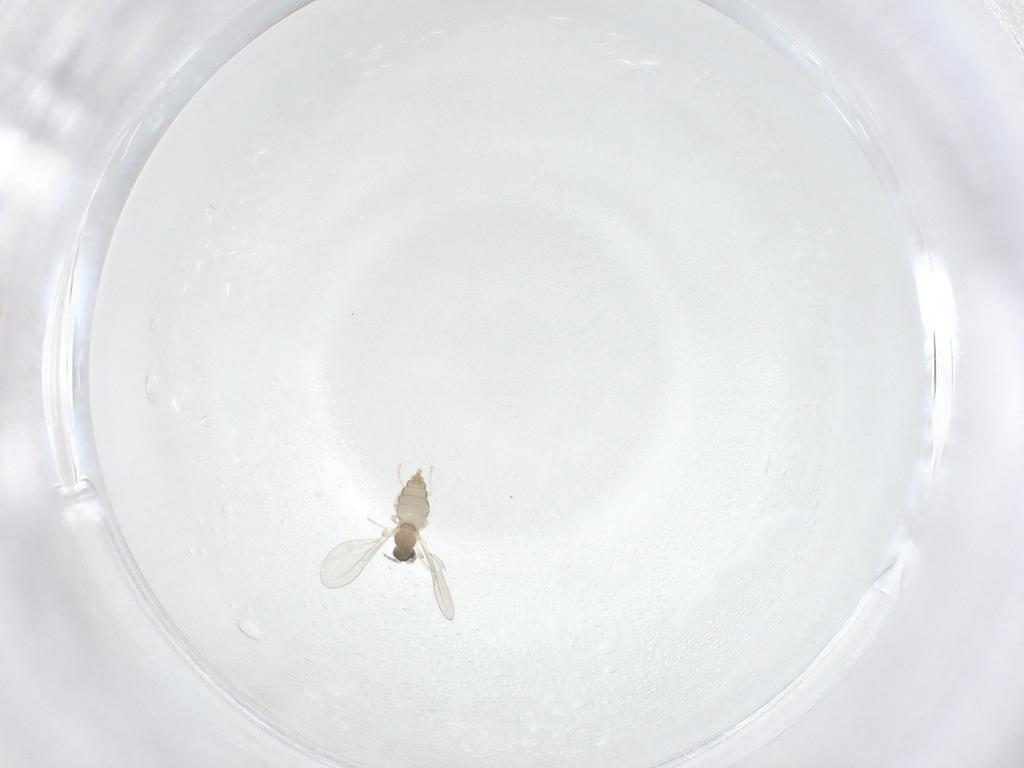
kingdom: Animalia
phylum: Arthropoda
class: Insecta
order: Diptera
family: Cecidomyiidae
